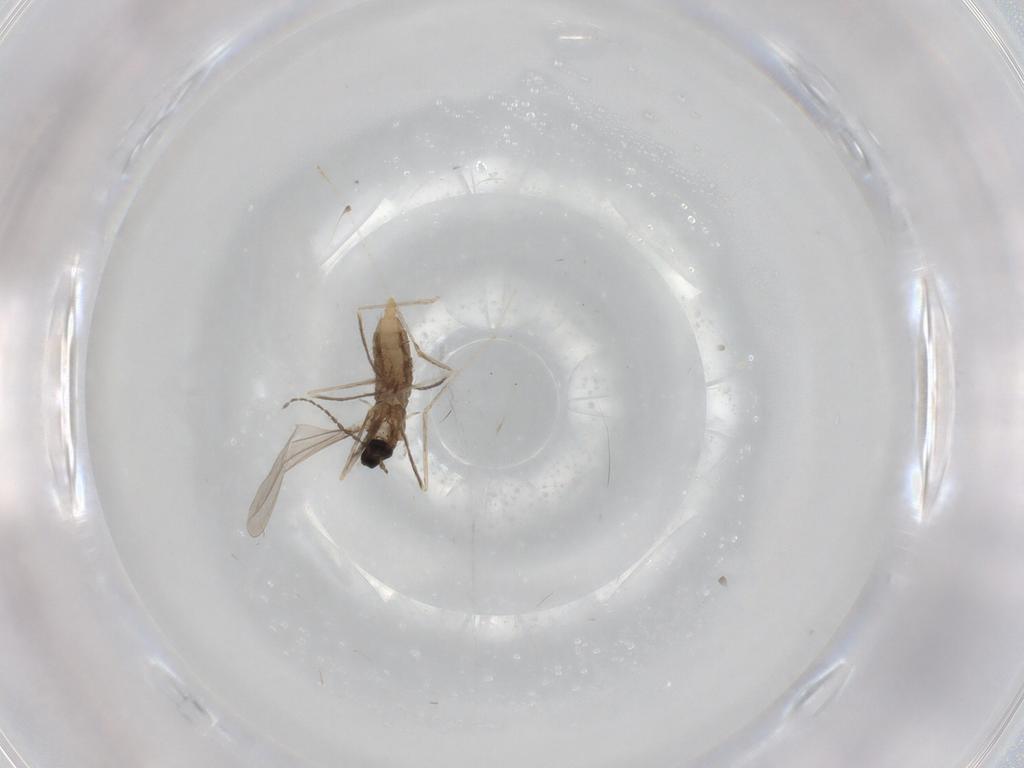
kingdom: Animalia
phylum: Arthropoda
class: Insecta
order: Diptera
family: Cecidomyiidae
